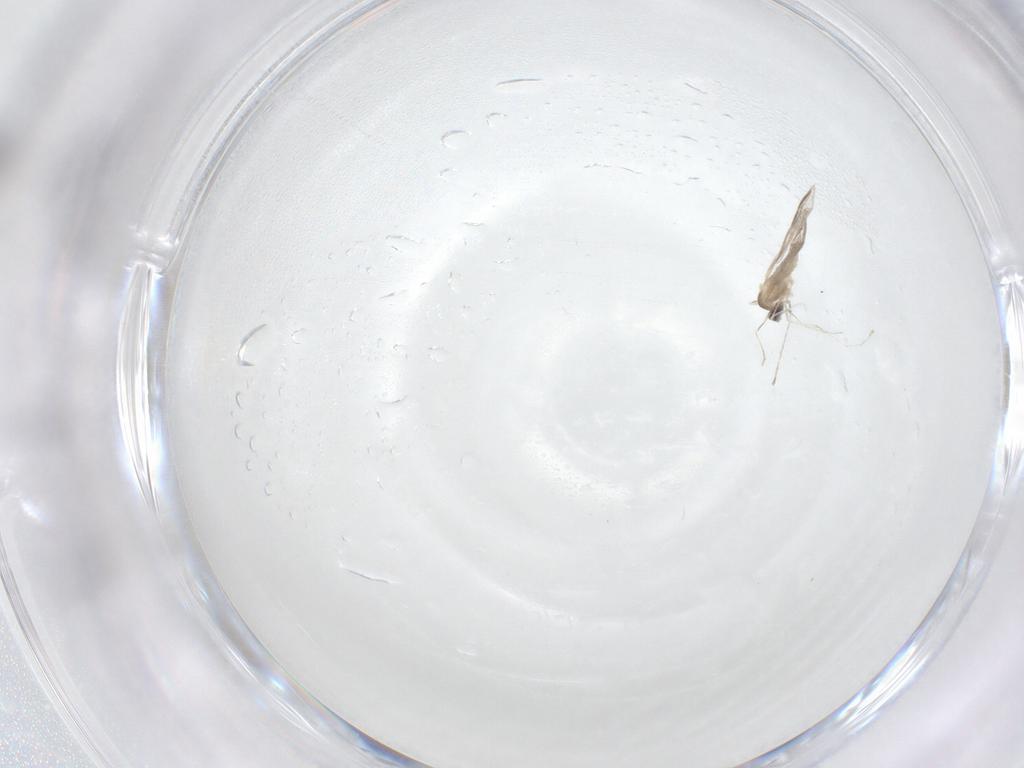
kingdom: Animalia
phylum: Arthropoda
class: Insecta
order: Diptera
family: Cecidomyiidae
